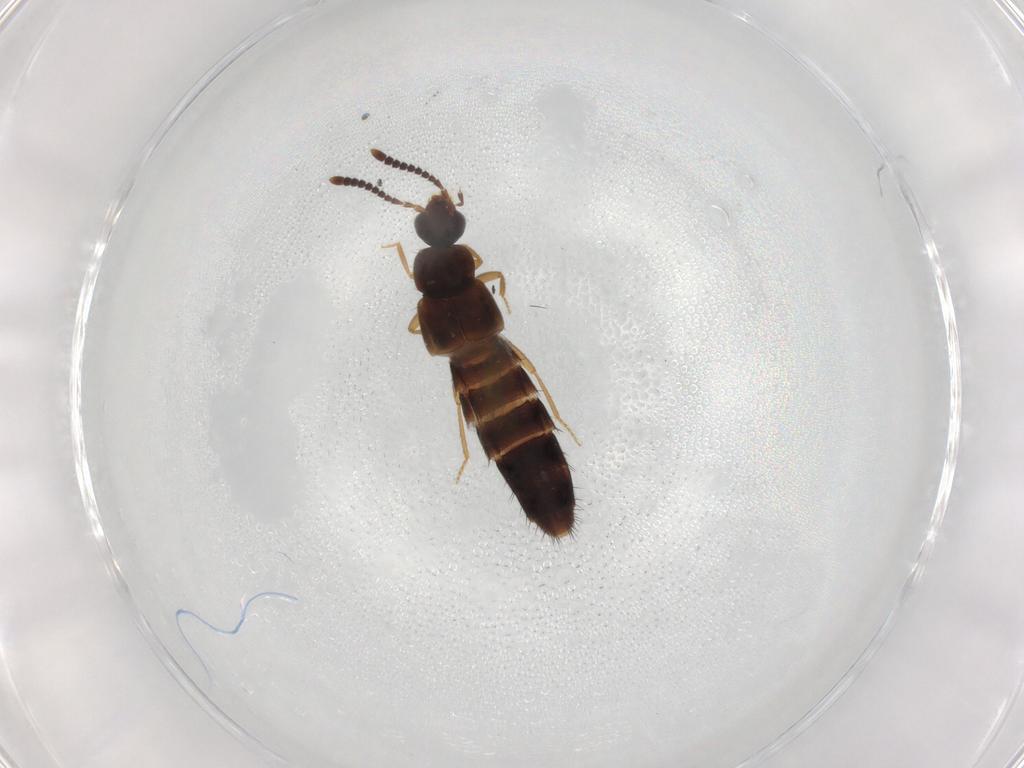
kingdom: Animalia
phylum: Arthropoda
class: Insecta
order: Coleoptera
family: Staphylinidae
